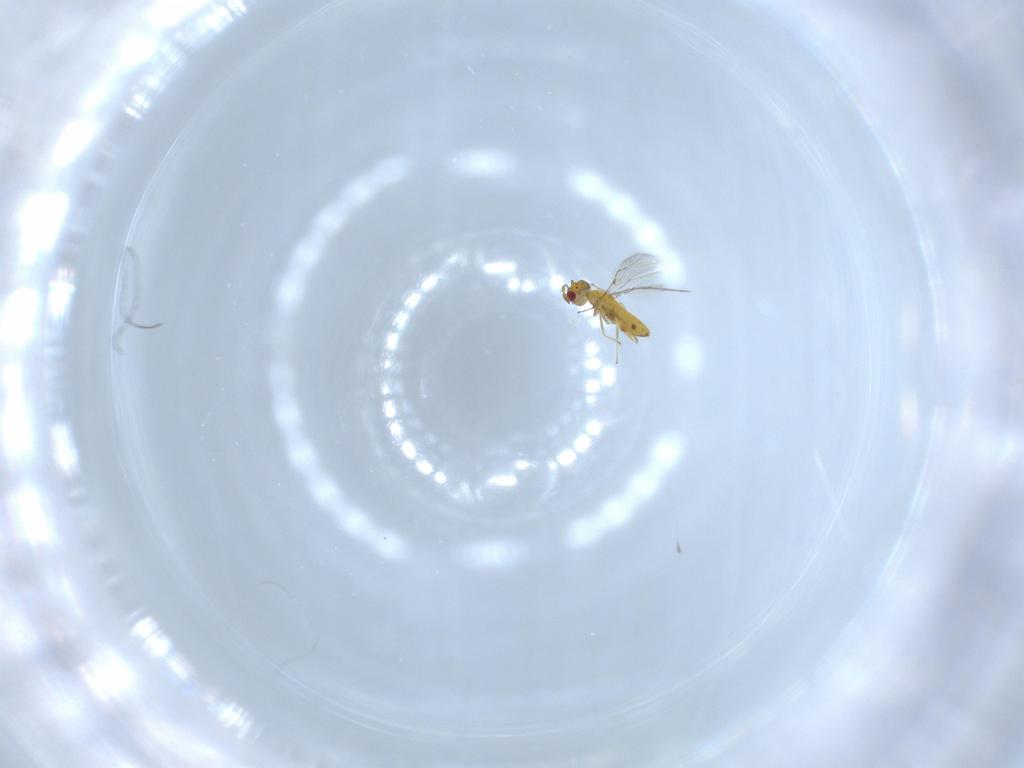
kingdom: Animalia
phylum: Arthropoda
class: Insecta
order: Hymenoptera
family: Trichogrammatidae
